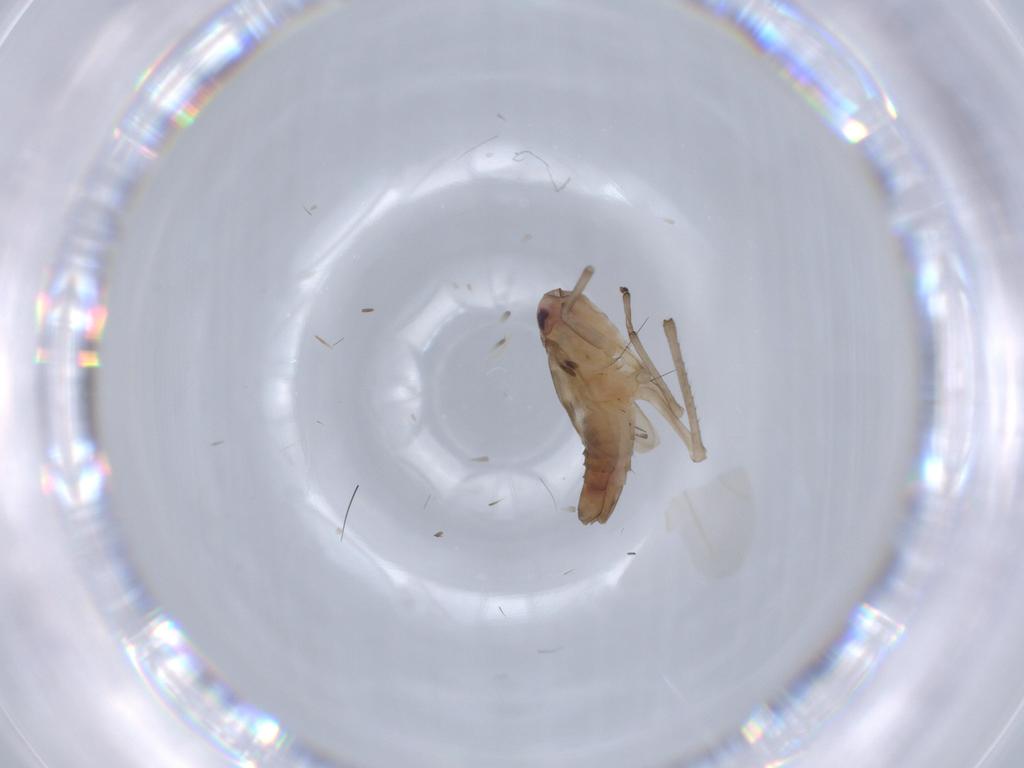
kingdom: Animalia
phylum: Arthropoda
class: Insecta
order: Hemiptera
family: Cicadellidae
